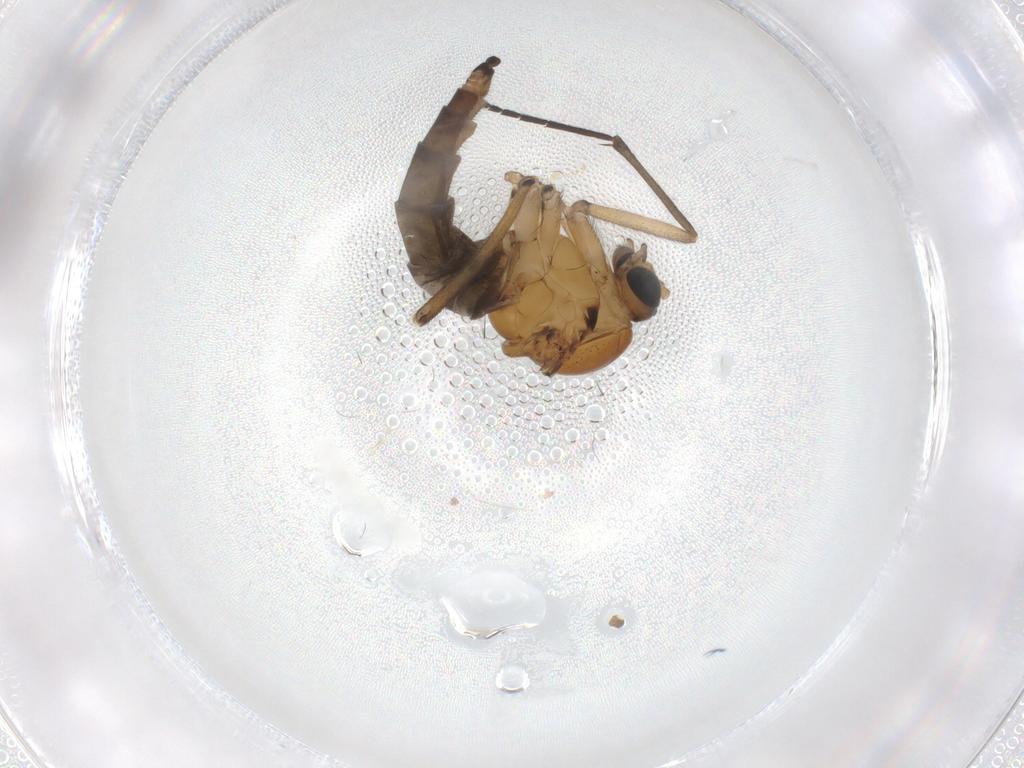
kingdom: Animalia
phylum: Arthropoda
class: Insecta
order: Diptera
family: Sciaridae
